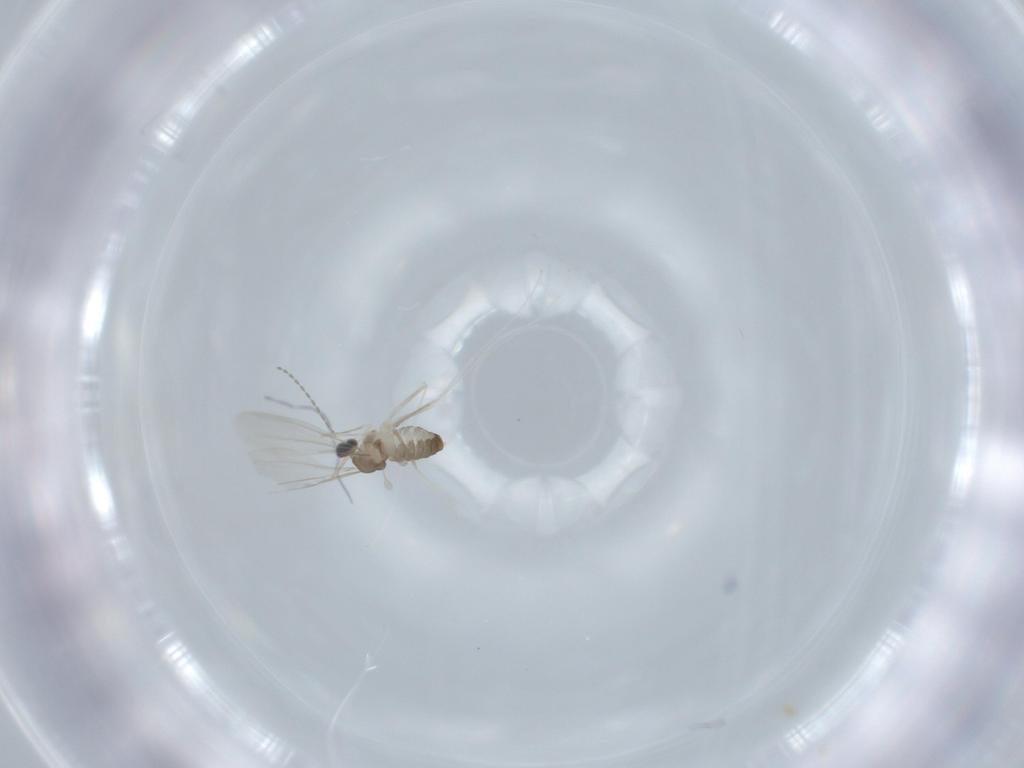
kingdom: Animalia
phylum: Arthropoda
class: Insecta
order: Diptera
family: Cecidomyiidae
